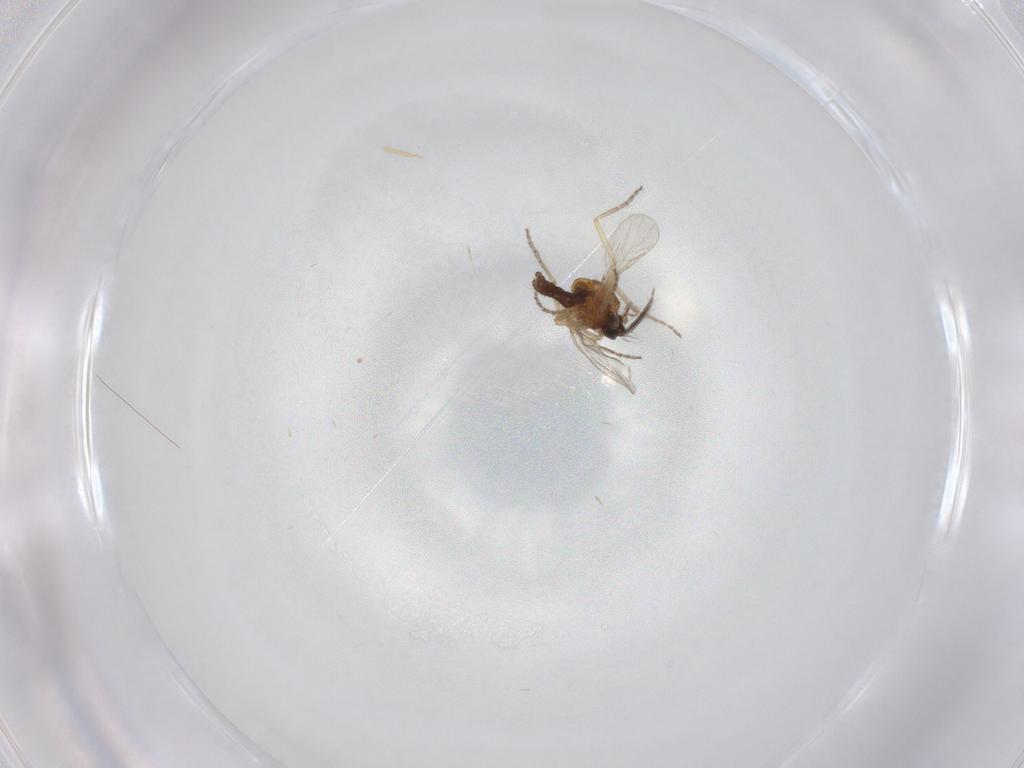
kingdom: Animalia
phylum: Arthropoda
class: Insecta
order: Diptera
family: Ceratopogonidae
